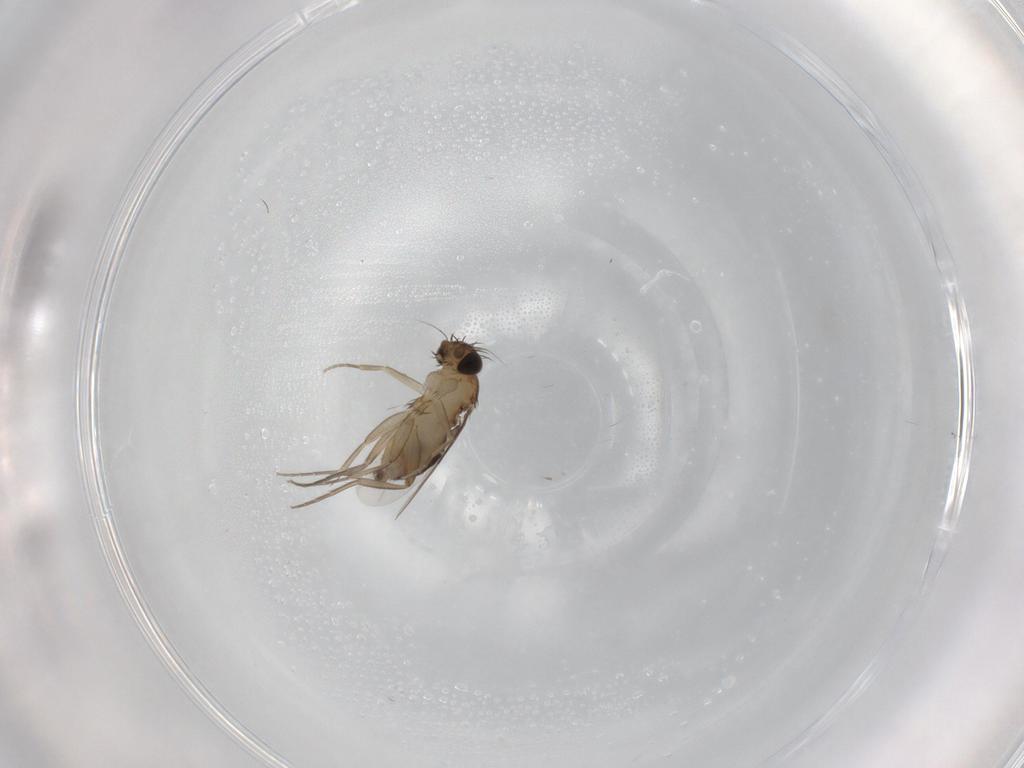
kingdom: Animalia
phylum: Arthropoda
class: Insecta
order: Diptera
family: Phoridae
